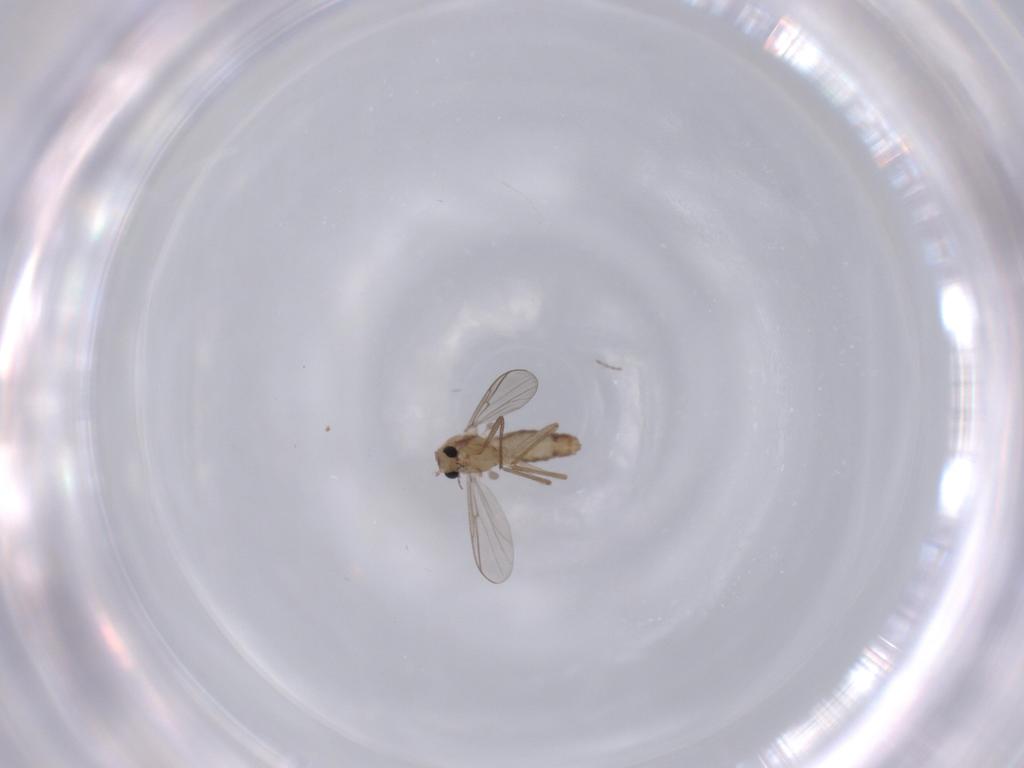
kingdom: Animalia
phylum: Arthropoda
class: Insecta
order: Diptera
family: Chironomidae
